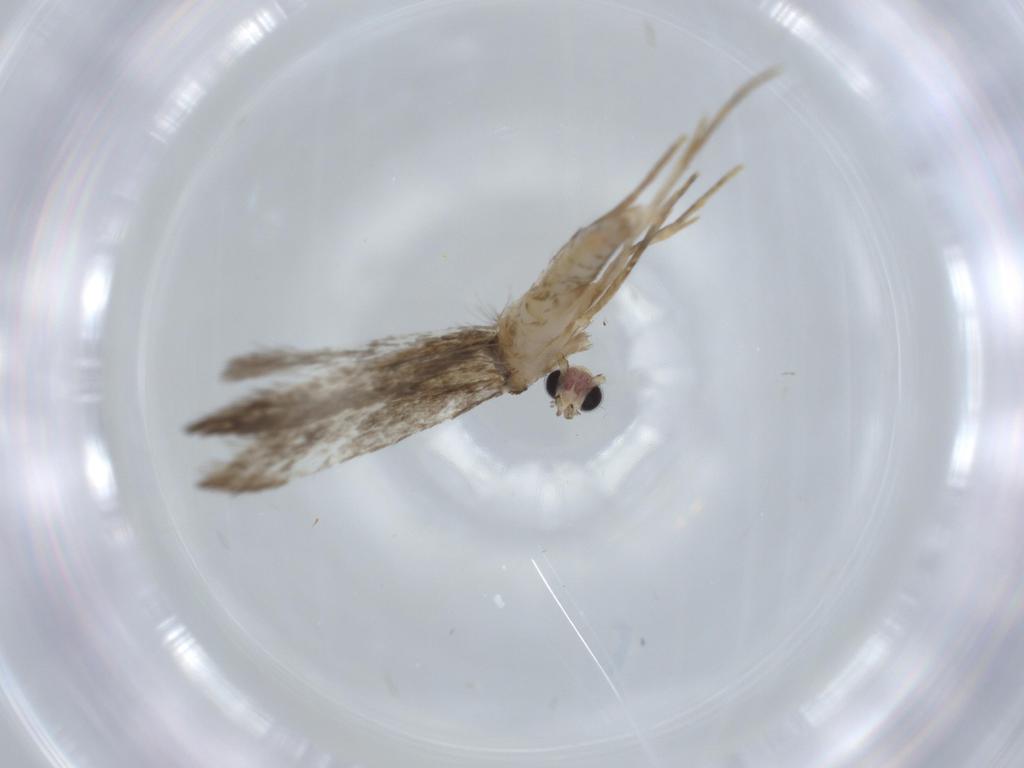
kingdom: Animalia
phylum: Arthropoda
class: Insecta
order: Lepidoptera
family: Tineidae
